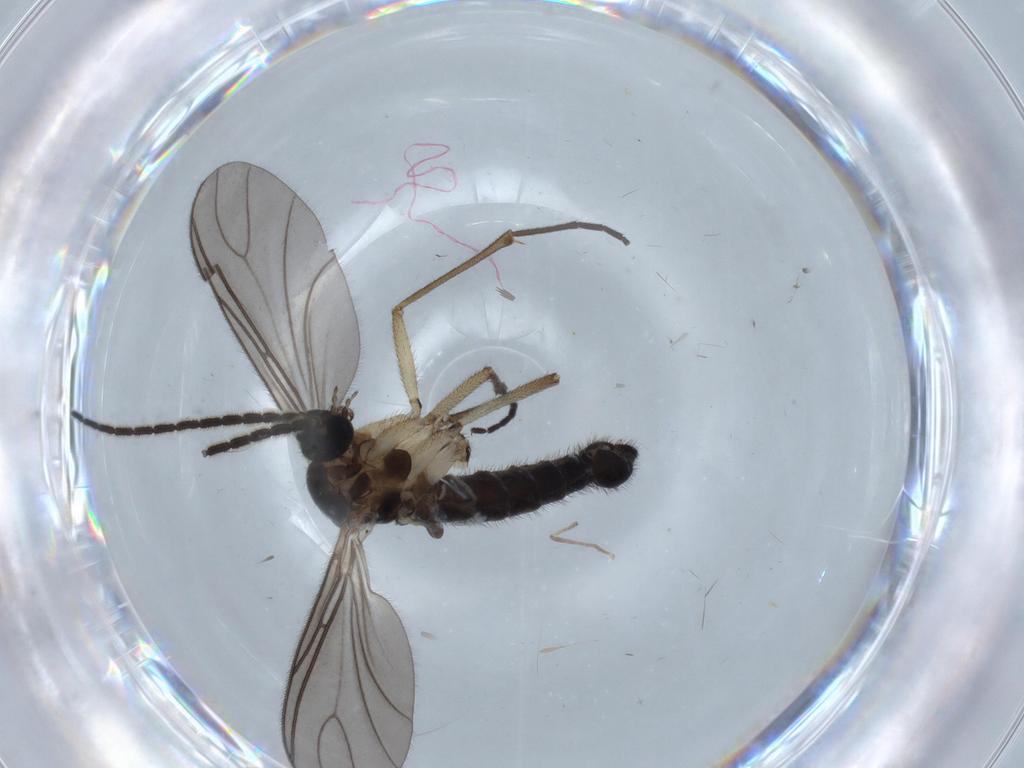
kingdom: Animalia
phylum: Arthropoda
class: Insecta
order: Diptera
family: Sciaridae
